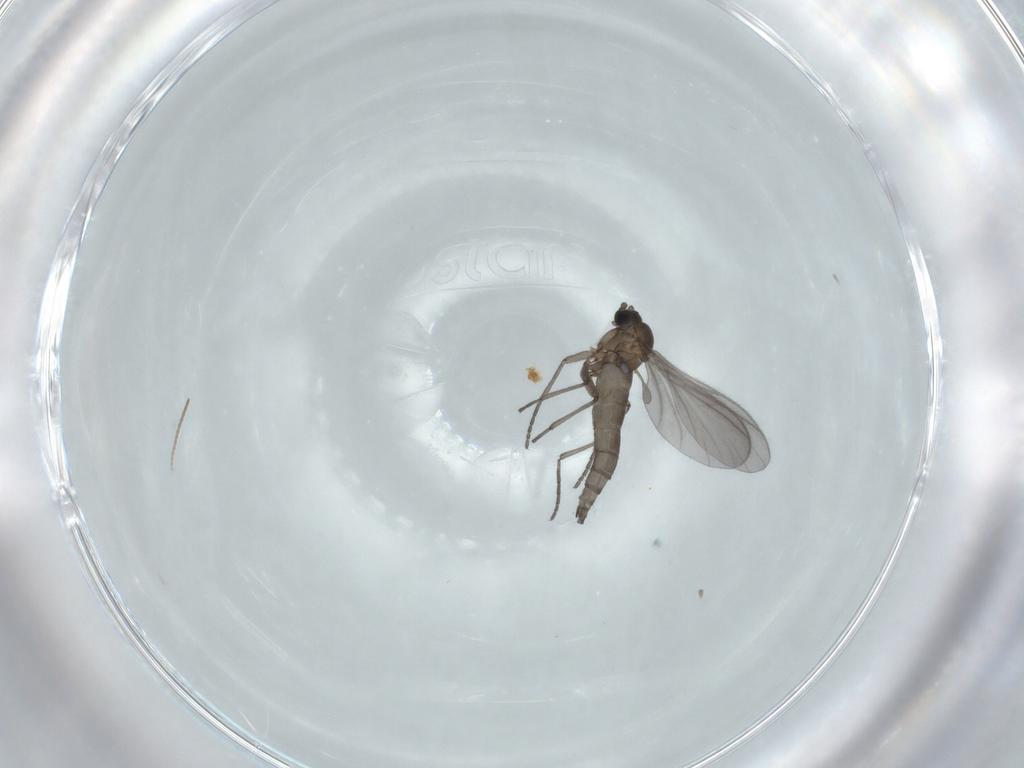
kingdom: Animalia
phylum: Arthropoda
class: Insecta
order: Diptera
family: Sciaridae
